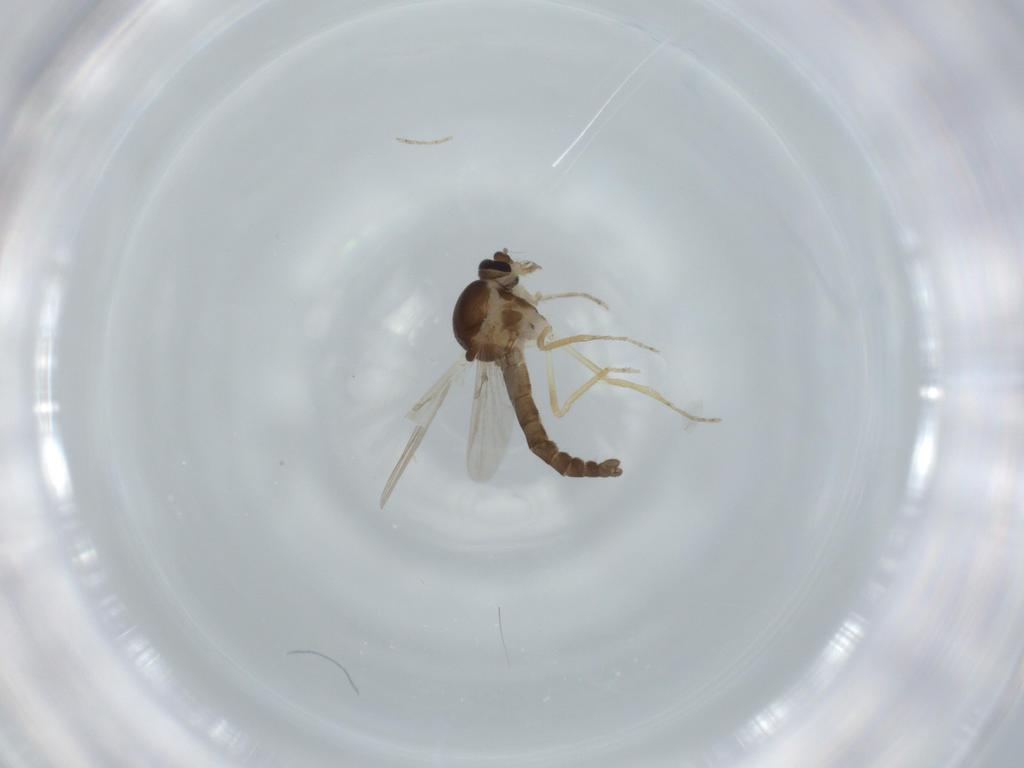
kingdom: Animalia
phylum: Arthropoda
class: Insecta
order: Diptera
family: Ceratopogonidae
